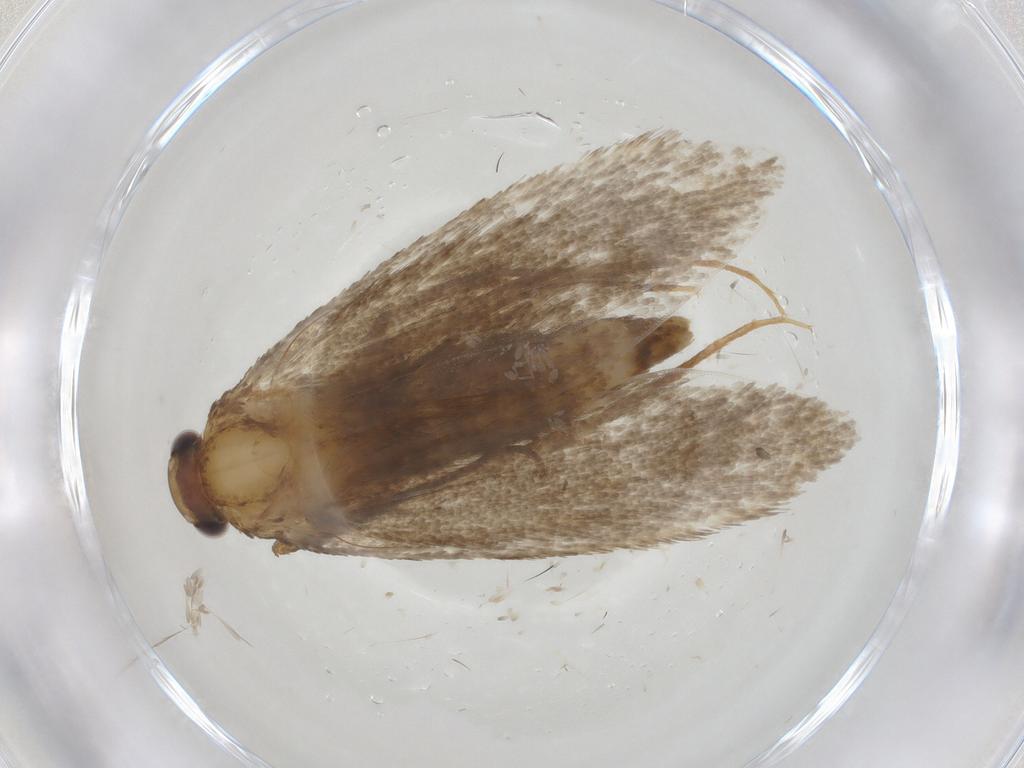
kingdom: Animalia
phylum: Arthropoda
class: Insecta
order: Lepidoptera
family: Tineidae
